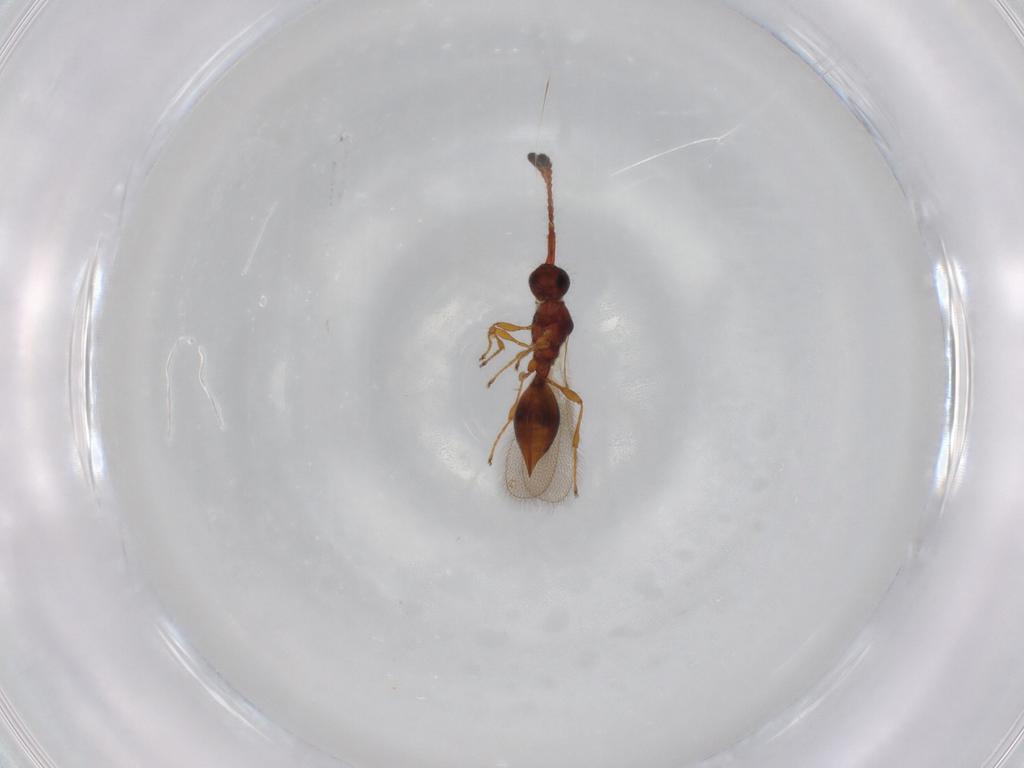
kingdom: Animalia
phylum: Arthropoda
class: Insecta
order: Hymenoptera
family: Diapriidae
